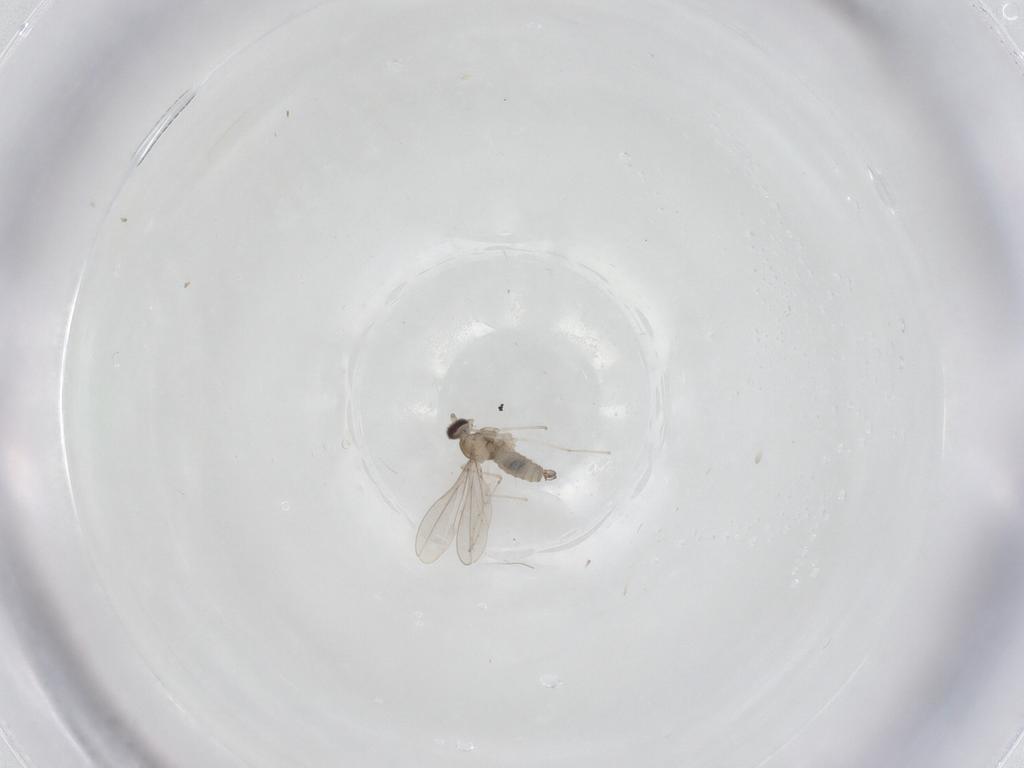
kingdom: Animalia
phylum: Arthropoda
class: Insecta
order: Diptera
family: Cecidomyiidae
